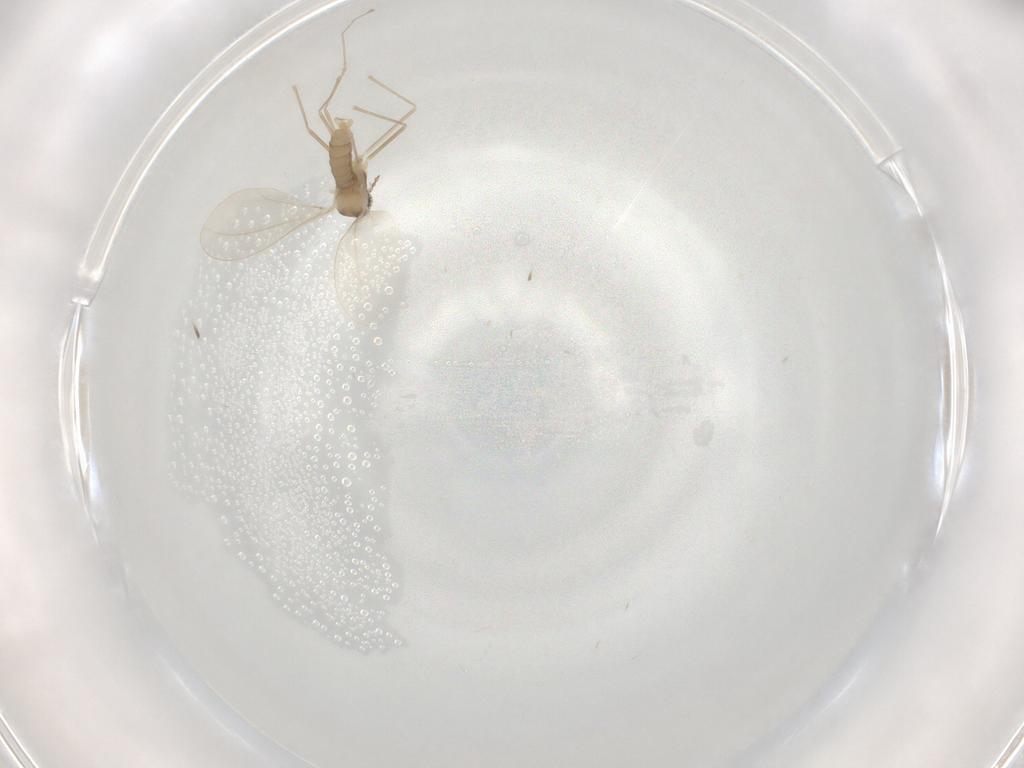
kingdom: Animalia
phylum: Arthropoda
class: Insecta
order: Diptera
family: Cecidomyiidae
